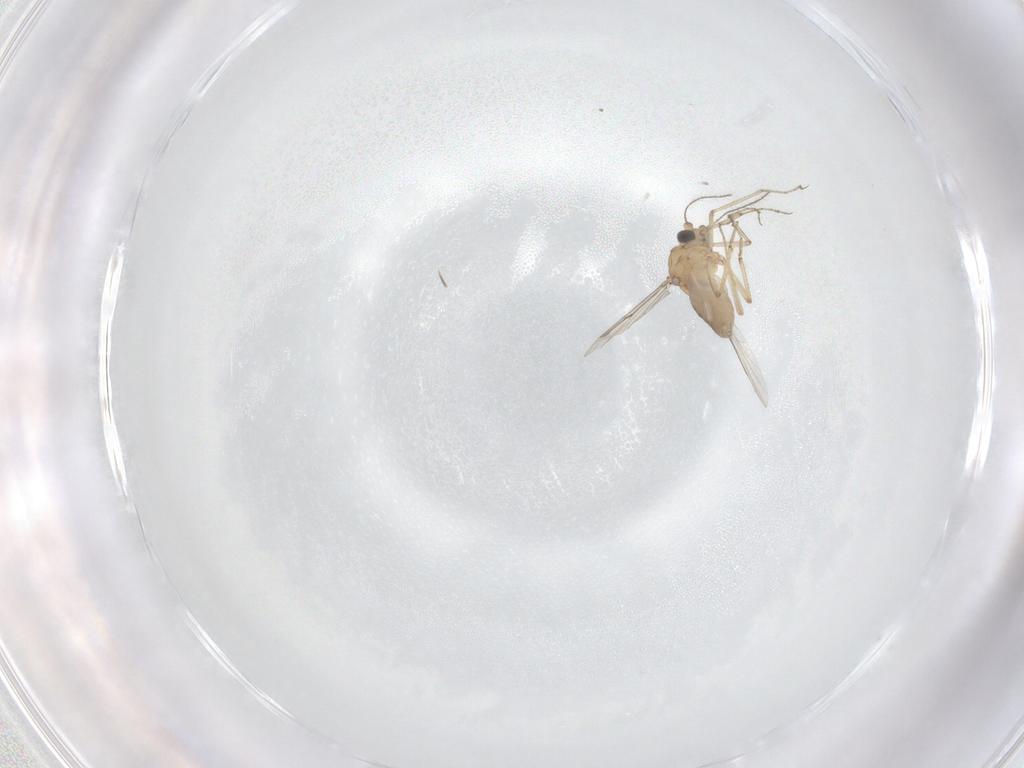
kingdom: Animalia
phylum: Arthropoda
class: Insecta
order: Diptera
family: Ceratopogonidae
